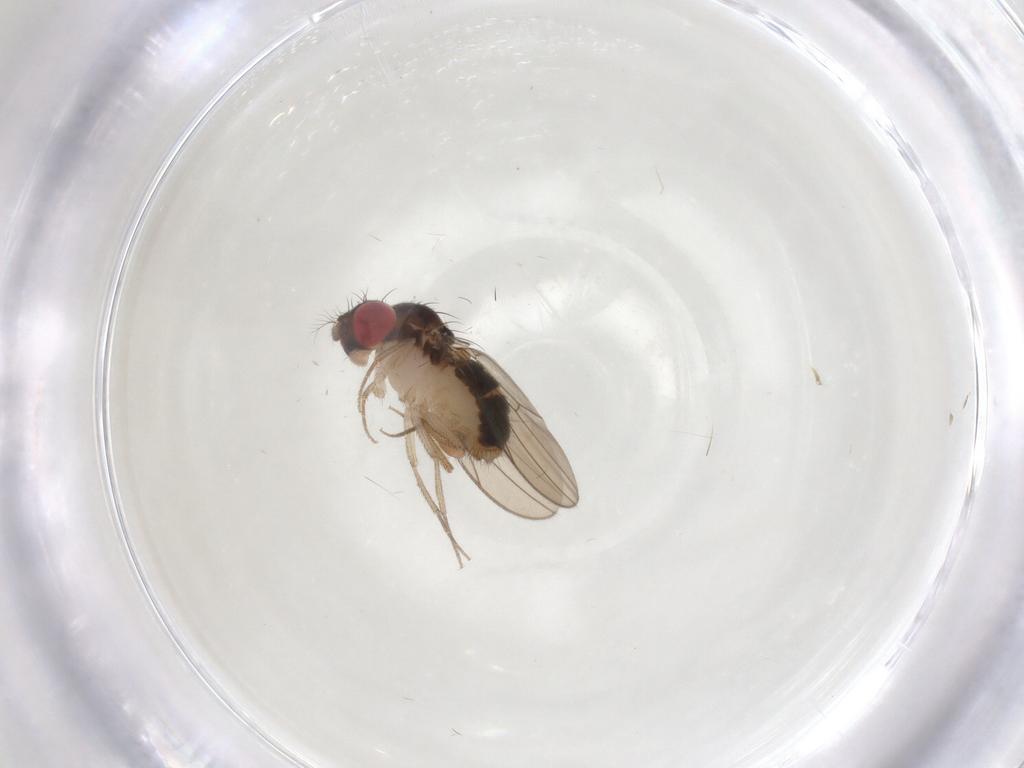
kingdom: Animalia
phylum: Arthropoda
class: Insecta
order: Diptera
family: Drosophilidae
